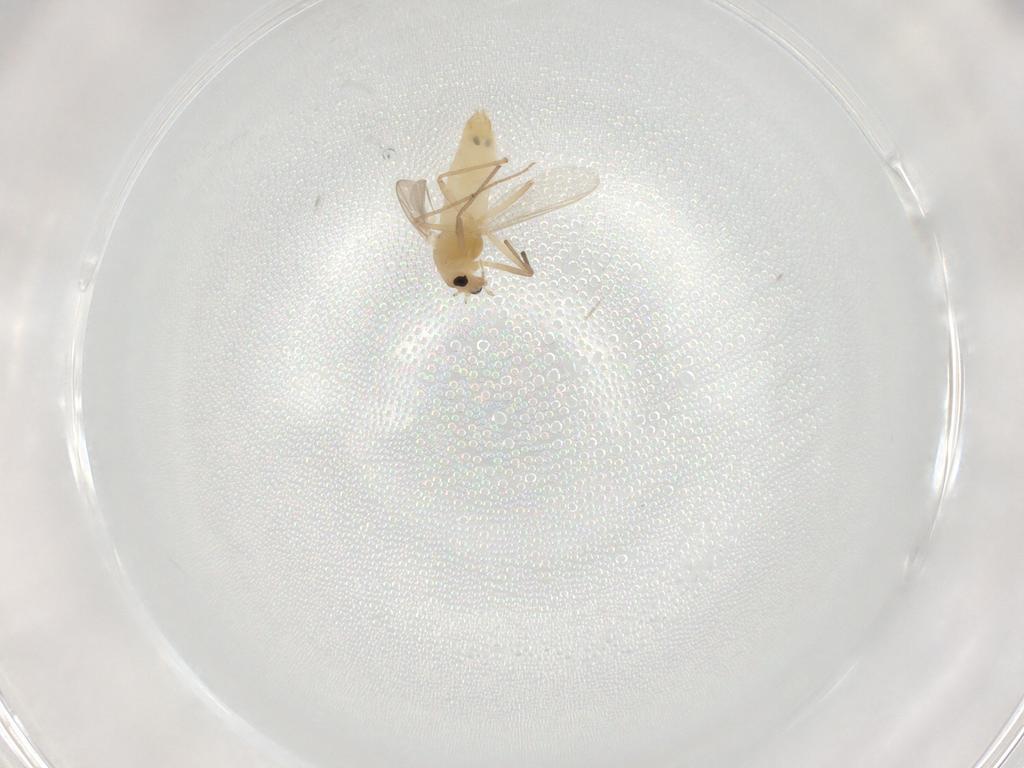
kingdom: Animalia
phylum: Arthropoda
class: Insecta
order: Diptera
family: Chironomidae
